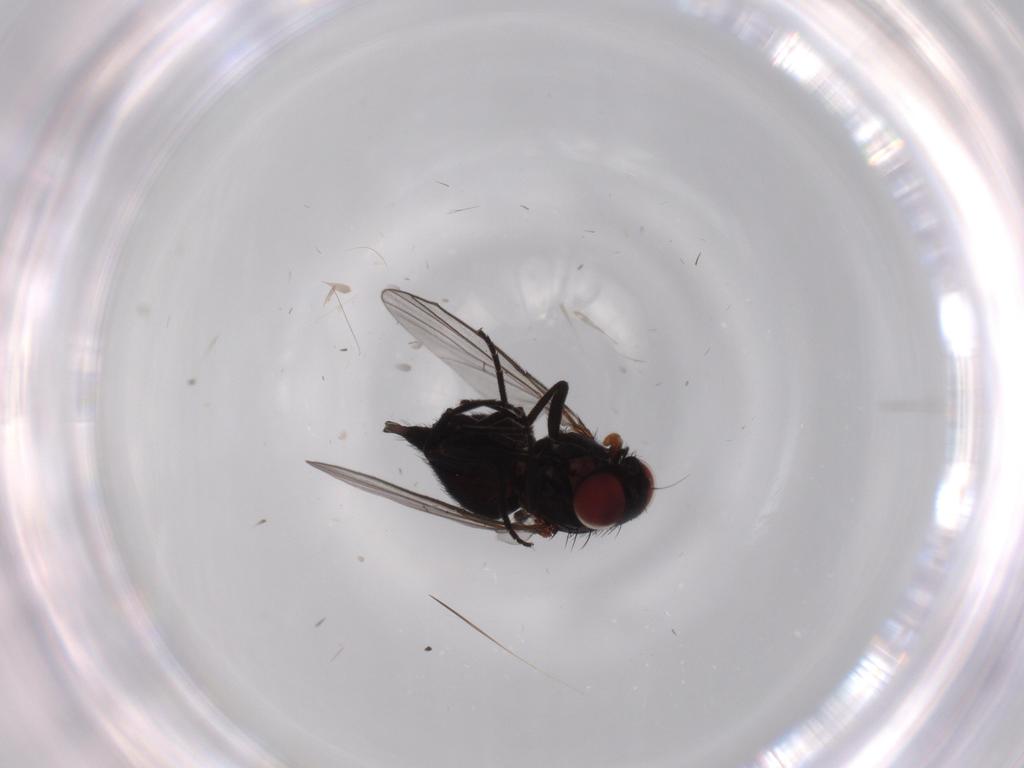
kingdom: Animalia
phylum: Arthropoda
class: Insecta
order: Diptera
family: Agromyzidae
